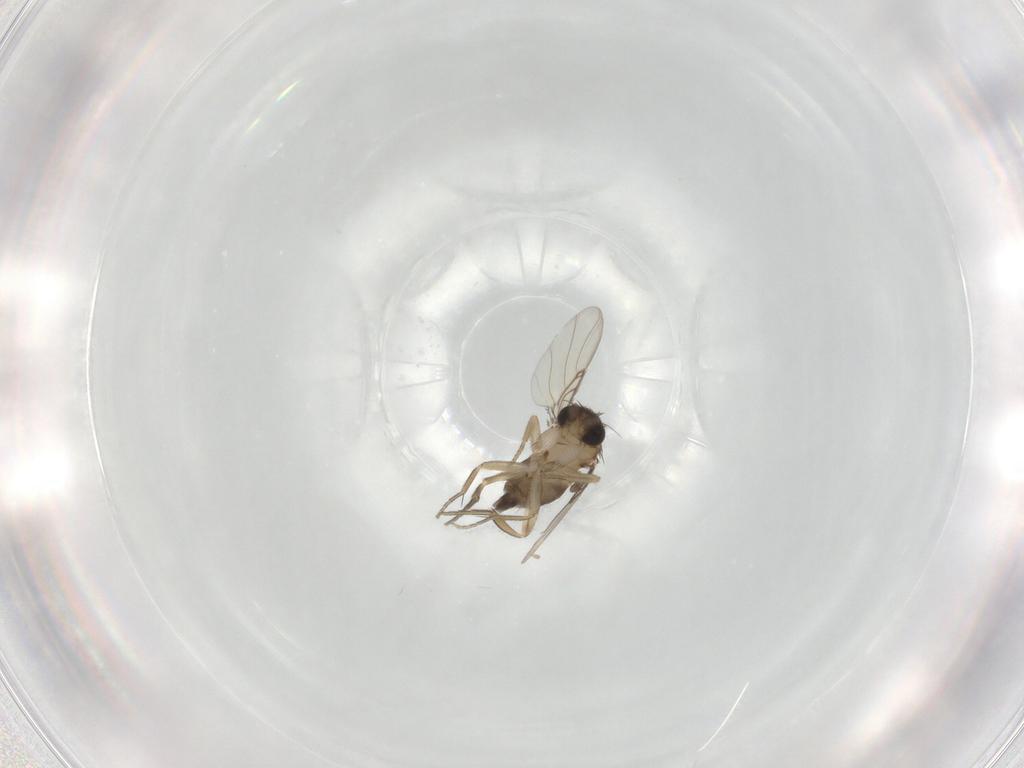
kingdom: Animalia
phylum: Arthropoda
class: Insecta
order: Diptera
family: Phoridae
